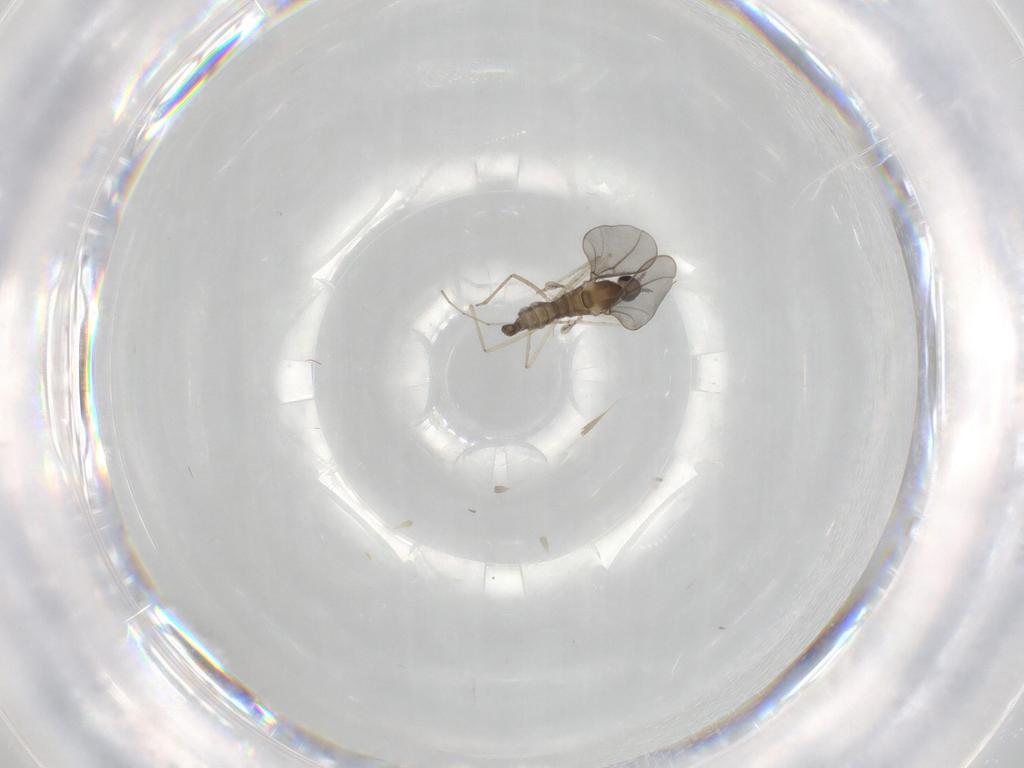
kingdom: Animalia
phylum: Arthropoda
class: Insecta
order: Diptera
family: Cecidomyiidae
